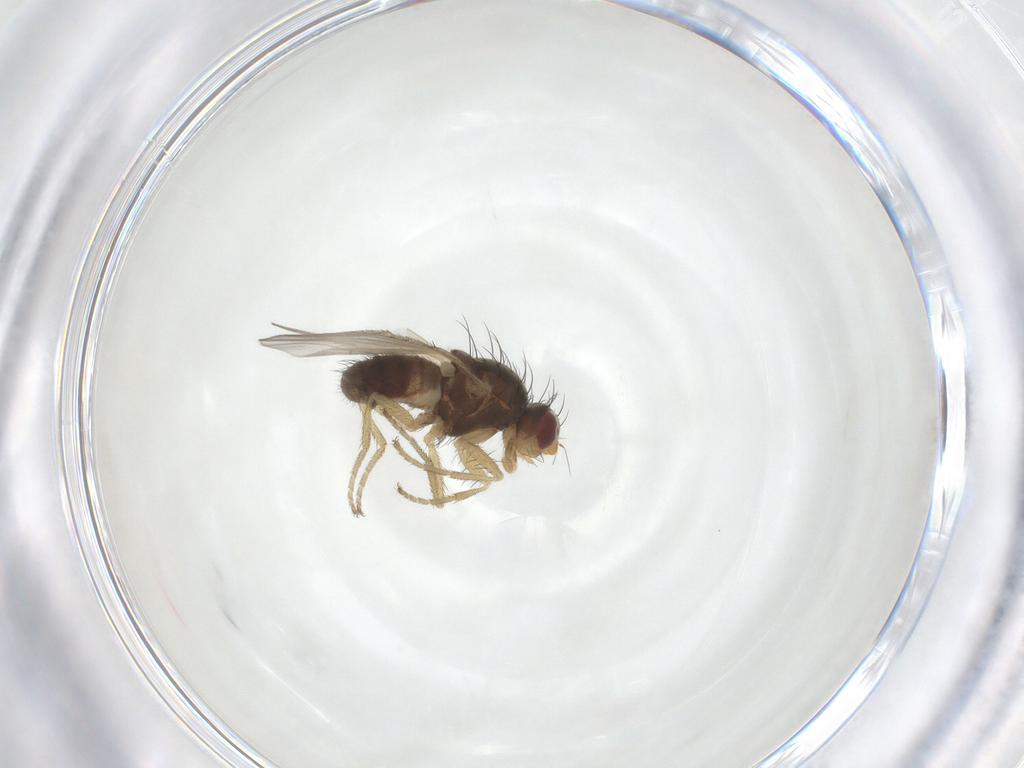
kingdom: Animalia
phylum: Arthropoda
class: Insecta
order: Diptera
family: Heleomyzidae
